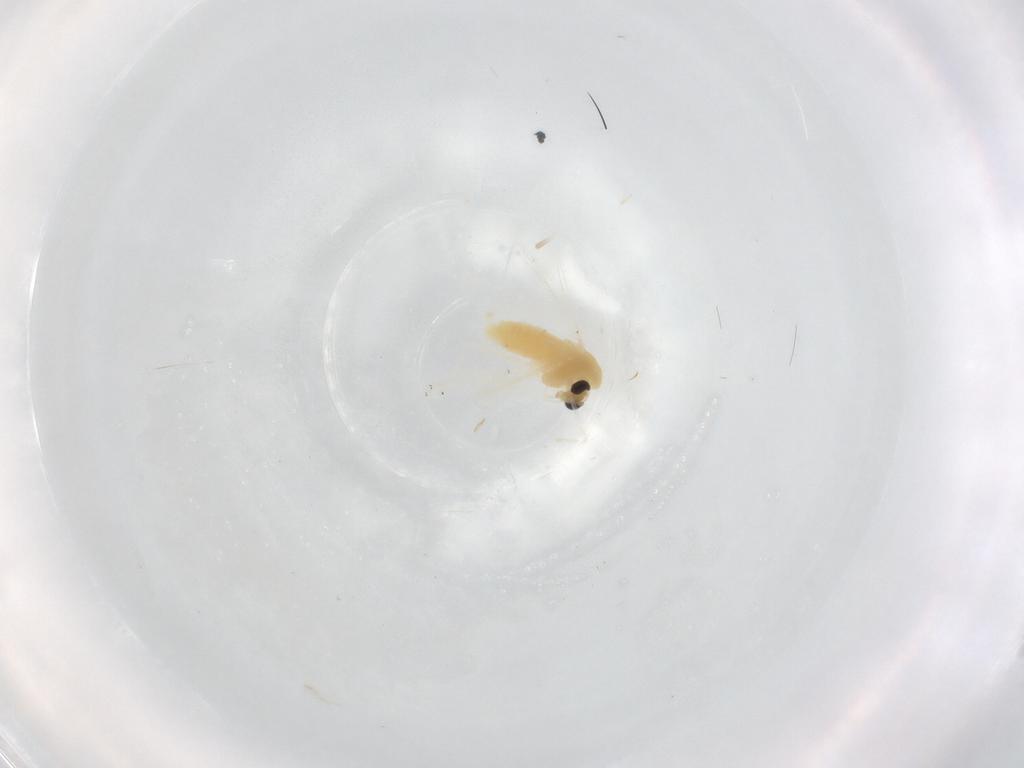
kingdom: Animalia
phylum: Arthropoda
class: Insecta
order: Diptera
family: Chironomidae
